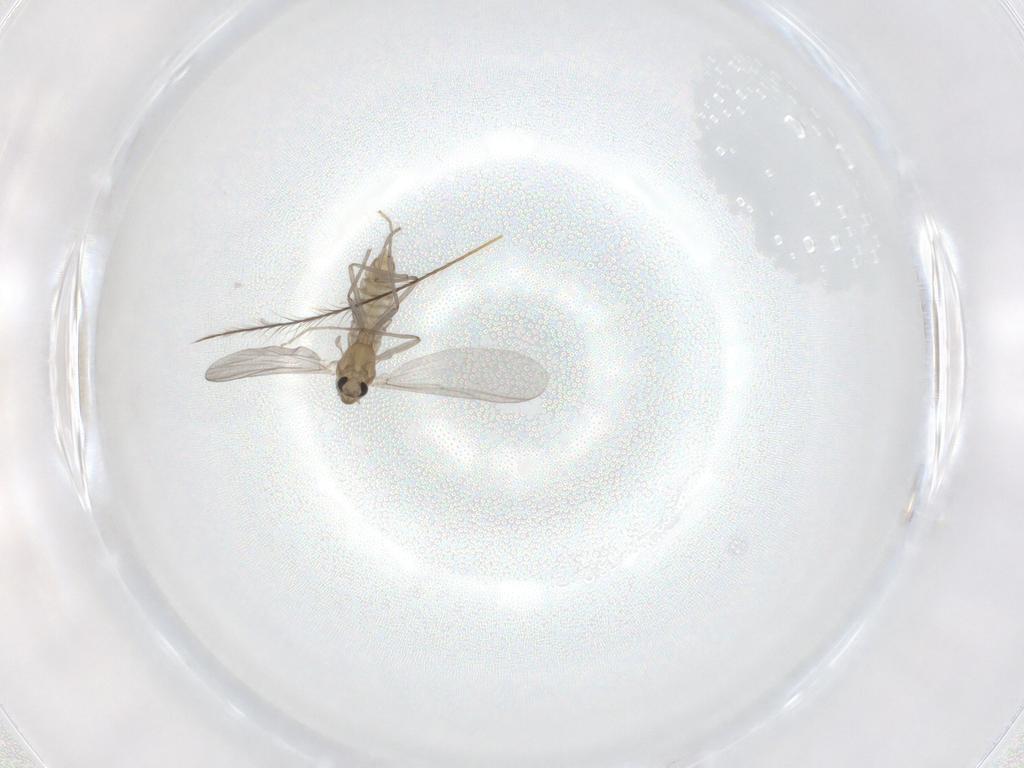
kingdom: Animalia
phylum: Arthropoda
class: Insecta
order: Diptera
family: Chironomidae
